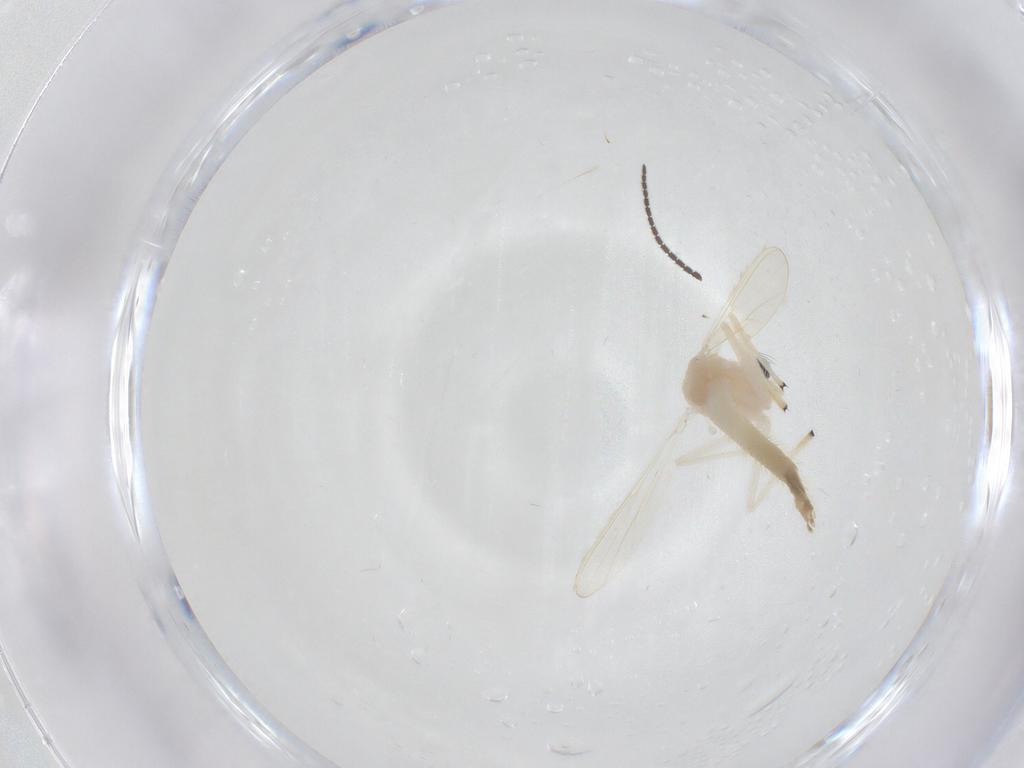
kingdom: Animalia
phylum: Arthropoda
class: Insecta
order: Diptera
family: Chironomidae
